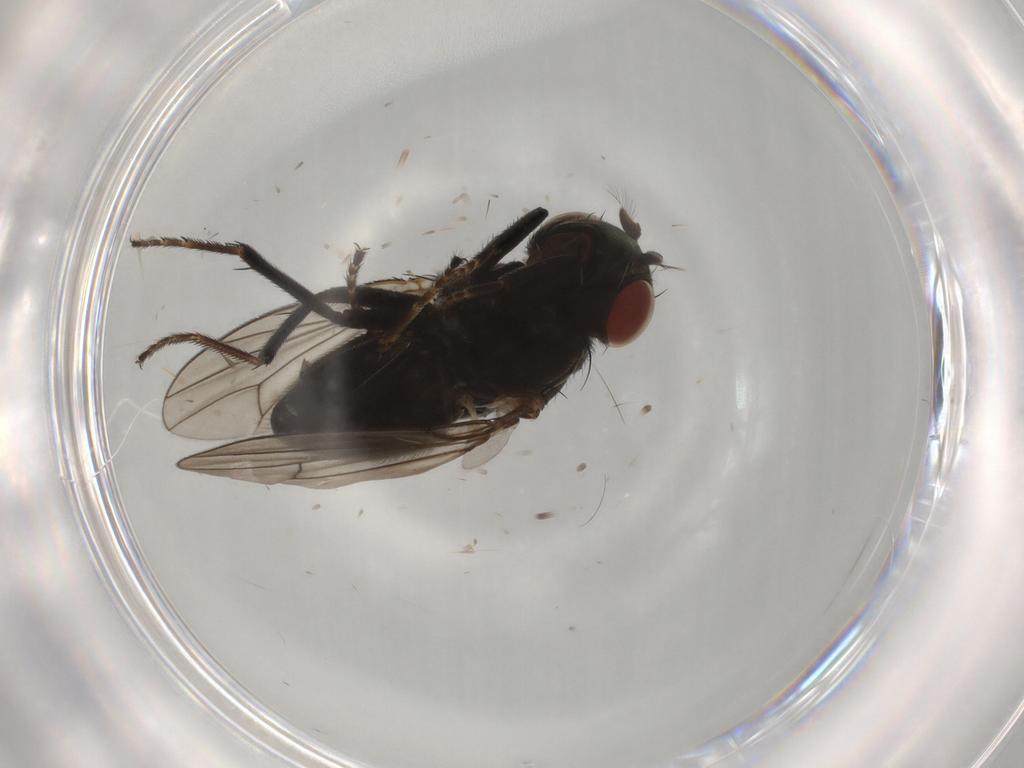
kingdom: Animalia
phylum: Arthropoda
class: Insecta
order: Diptera
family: Ephydridae
